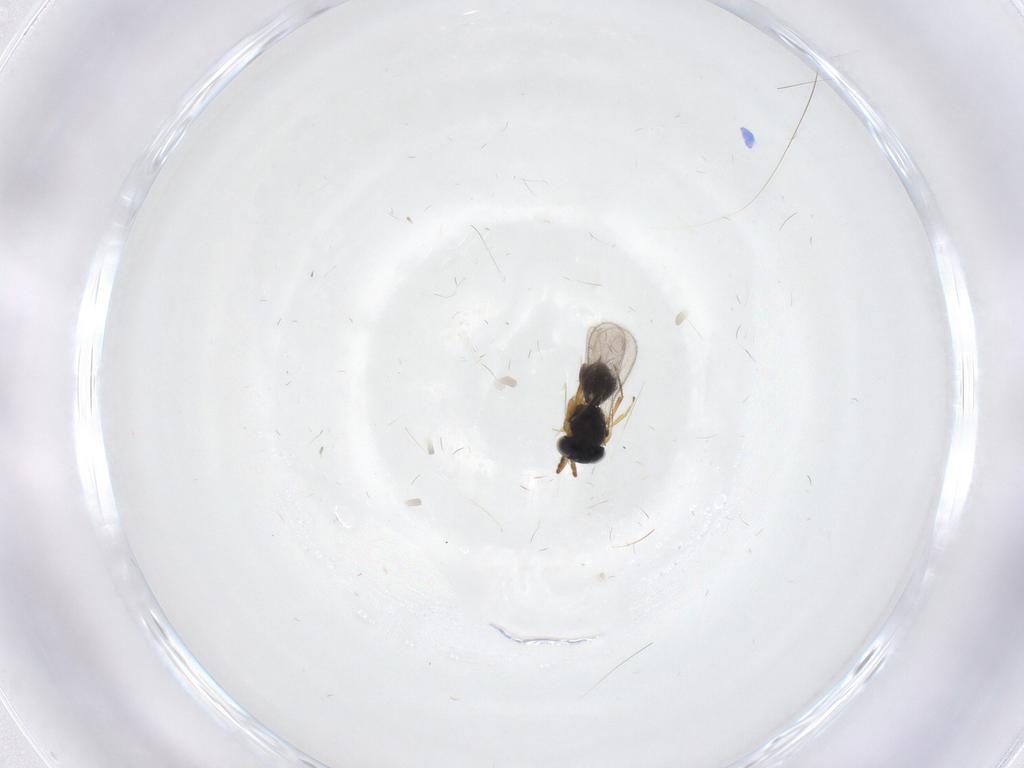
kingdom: Animalia
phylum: Arthropoda
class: Insecta
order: Hymenoptera
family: Scelionidae
